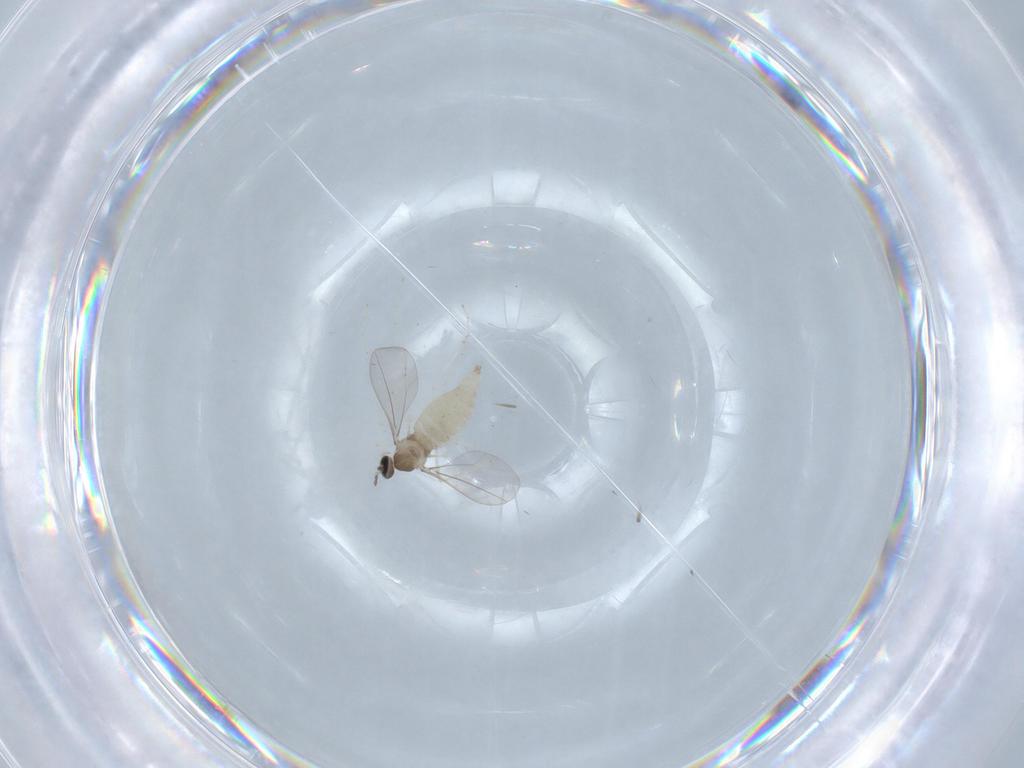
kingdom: Animalia
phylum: Arthropoda
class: Insecta
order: Diptera
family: Cecidomyiidae
